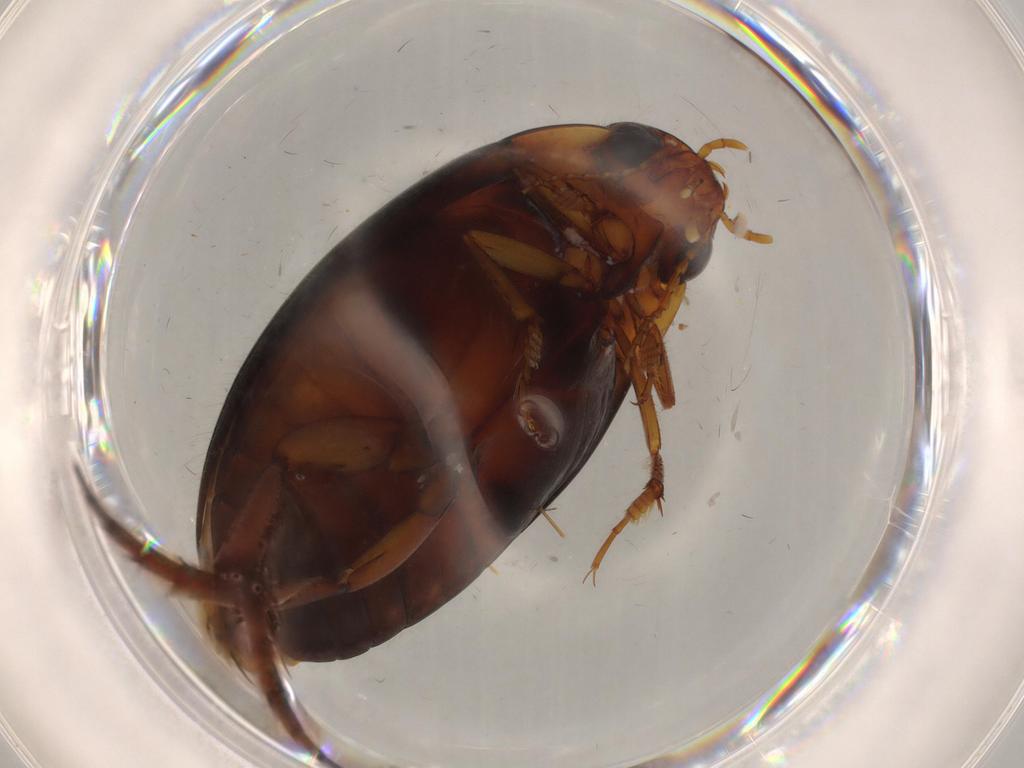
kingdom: Animalia
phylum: Arthropoda
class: Insecta
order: Coleoptera
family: Dytiscidae
